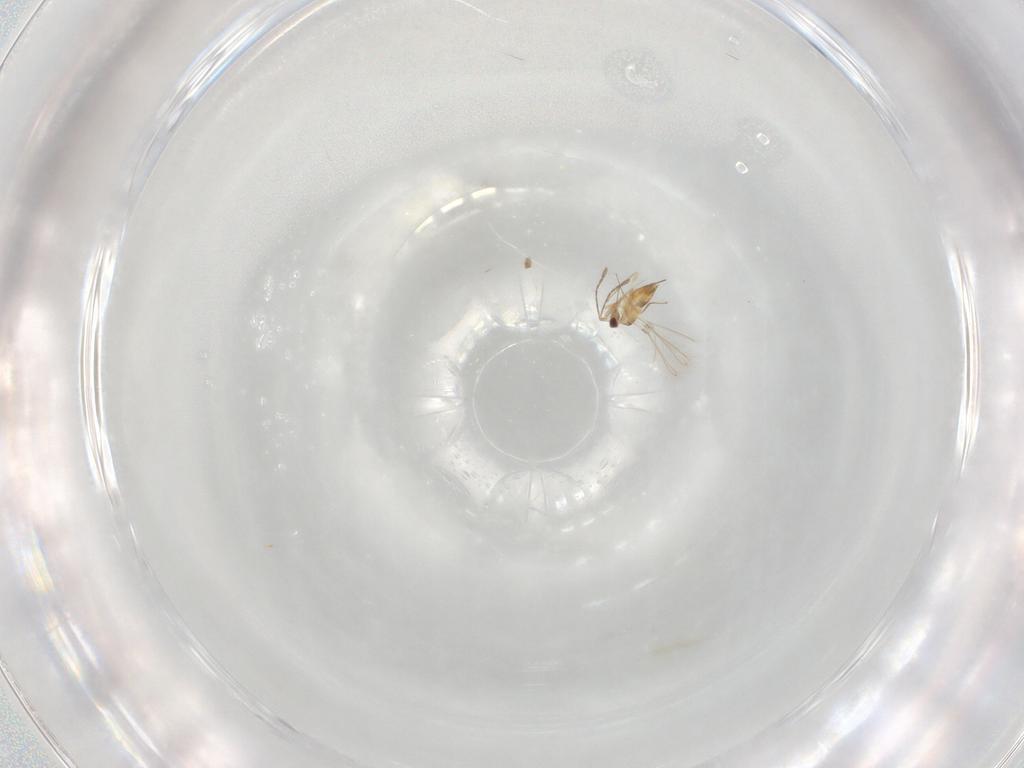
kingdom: Animalia
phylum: Arthropoda
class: Insecta
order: Hymenoptera
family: Mymaridae
